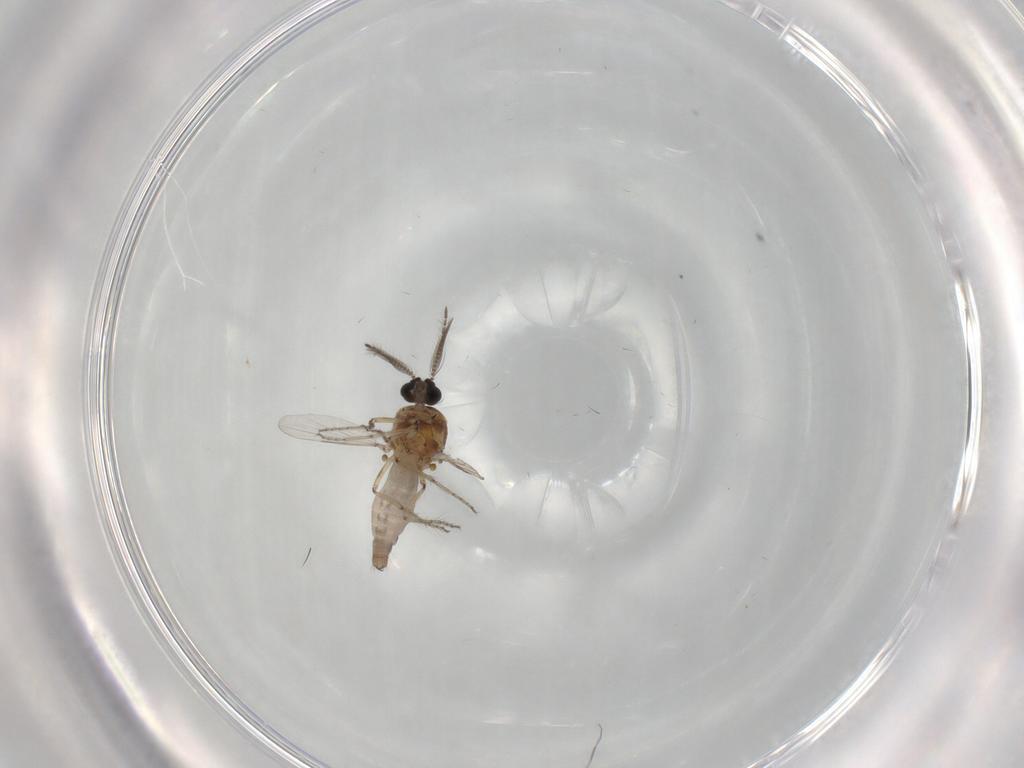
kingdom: Animalia
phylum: Arthropoda
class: Insecta
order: Diptera
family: Ceratopogonidae
